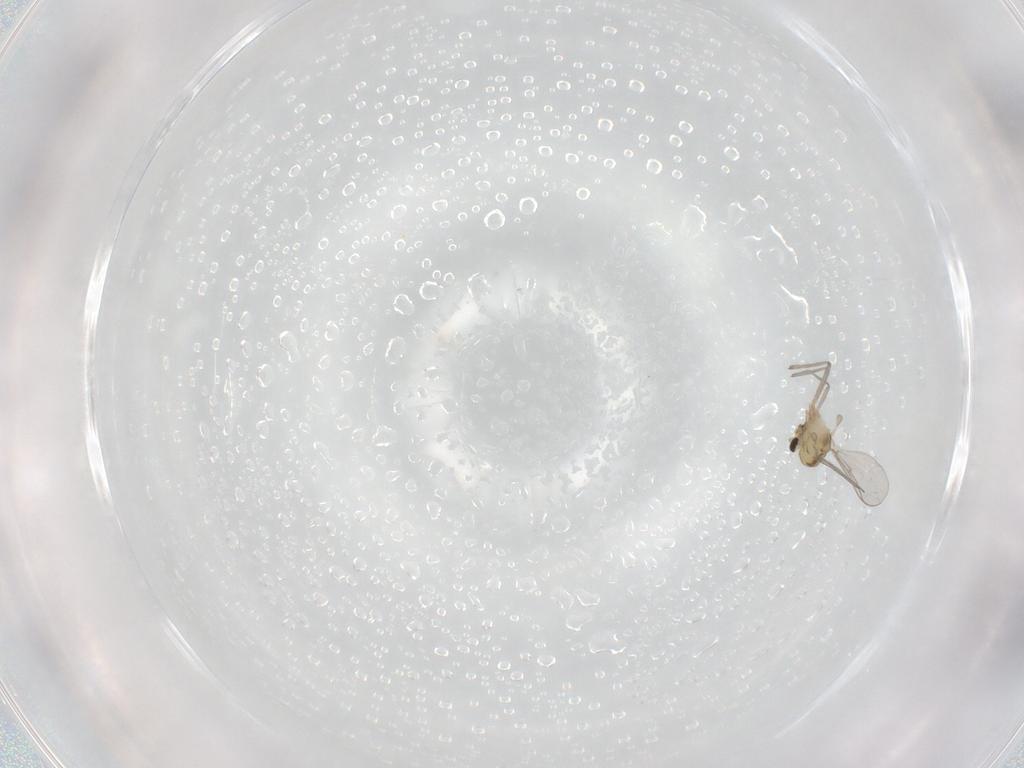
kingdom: Animalia
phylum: Arthropoda
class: Insecta
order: Diptera
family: Chironomidae
